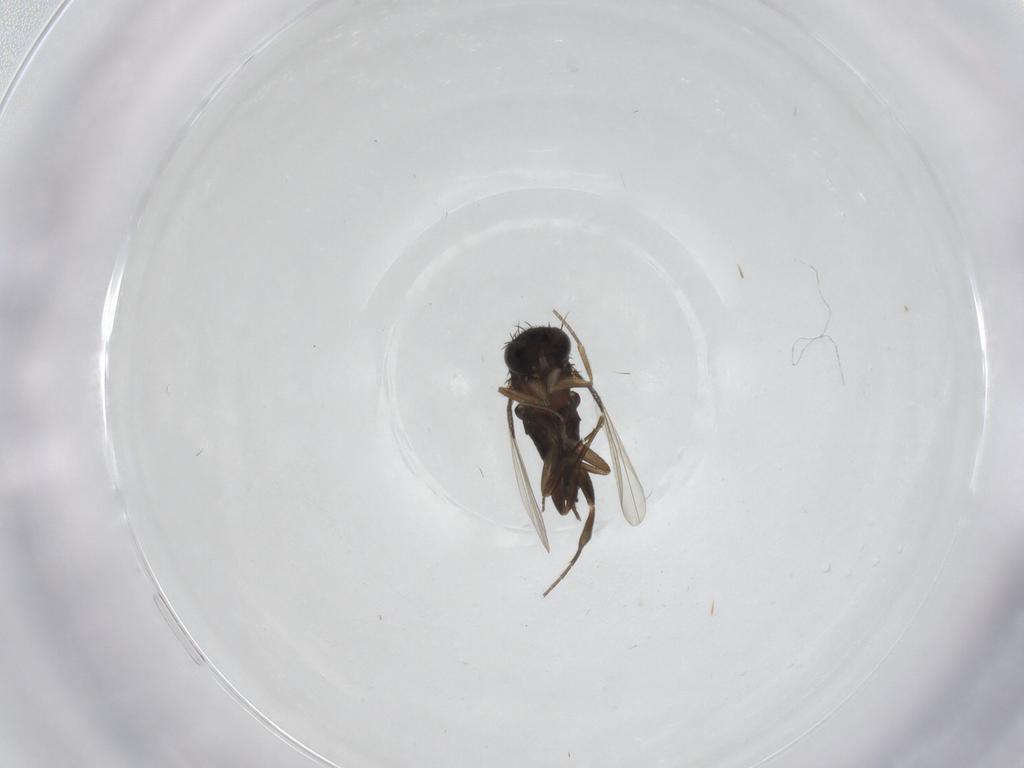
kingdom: Animalia
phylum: Arthropoda
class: Insecta
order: Diptera
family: Phoridae
